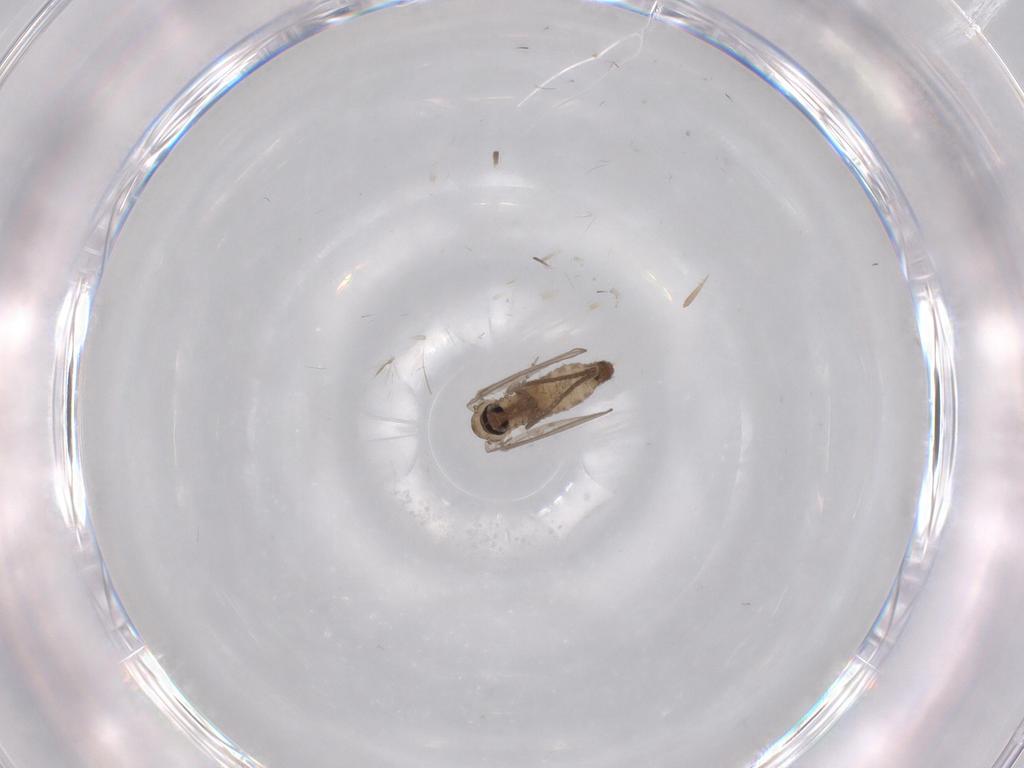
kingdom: Animalia
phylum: Arthropoda
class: Insecta
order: Diptera
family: Psychodidae
